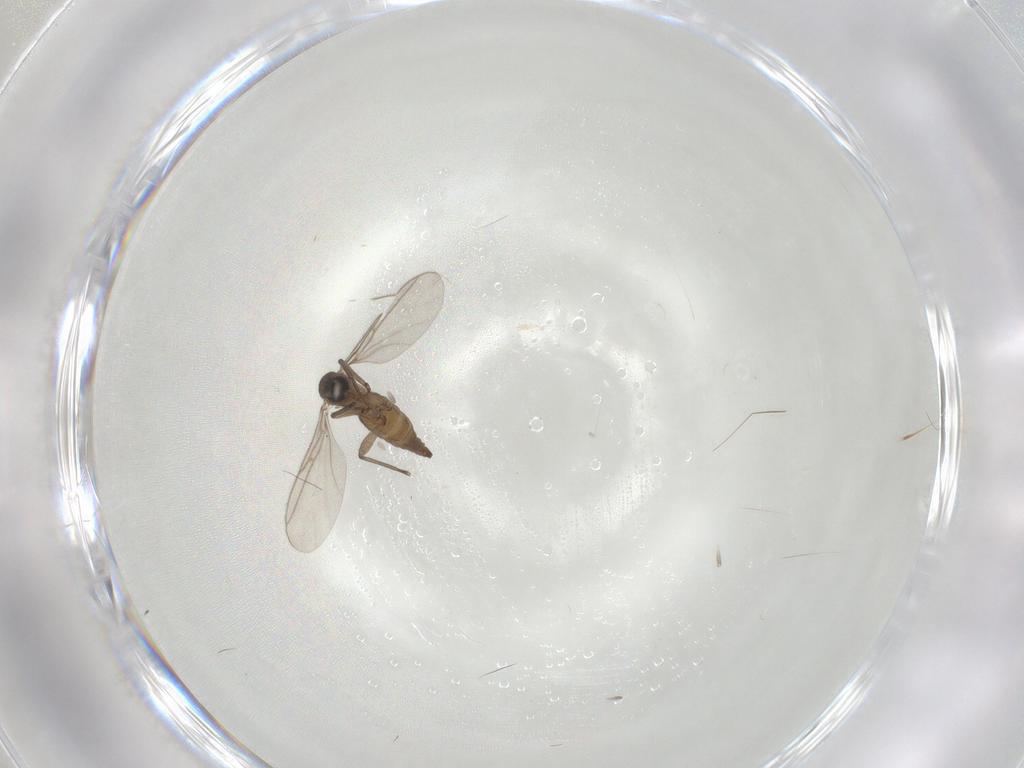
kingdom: Animalia
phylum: Arthropoda
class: Insecta
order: Diptera
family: Sciaridae
